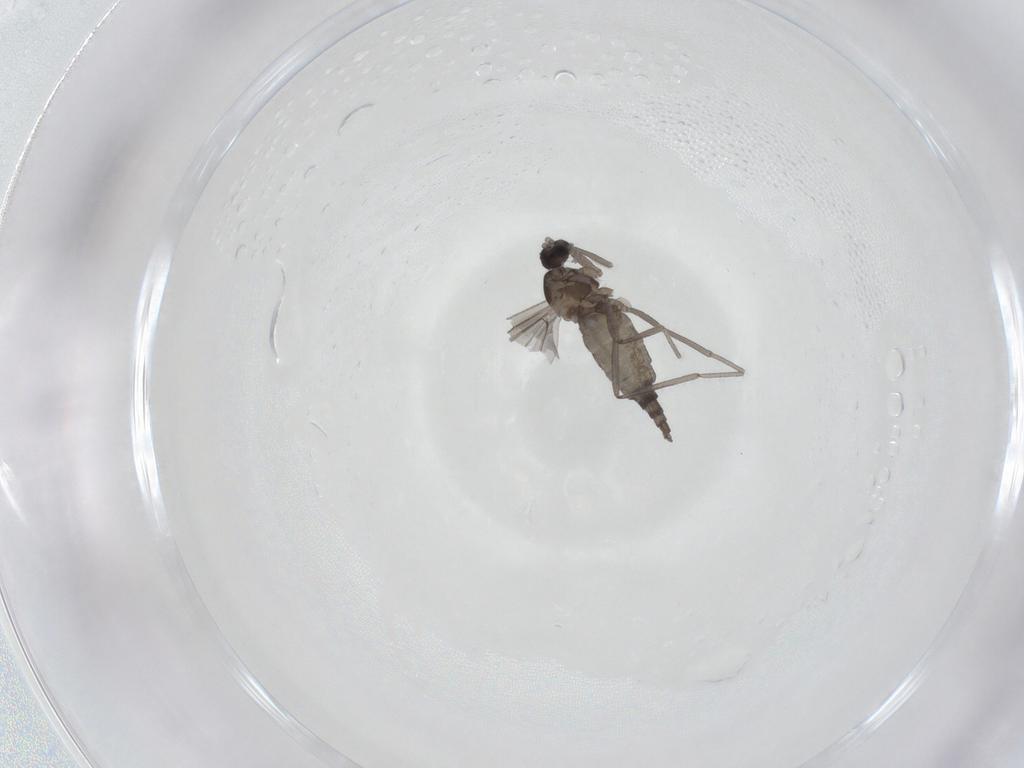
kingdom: Animalia
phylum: Arthropoda
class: Insecta
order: Diptera
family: Cecidomyiidae
